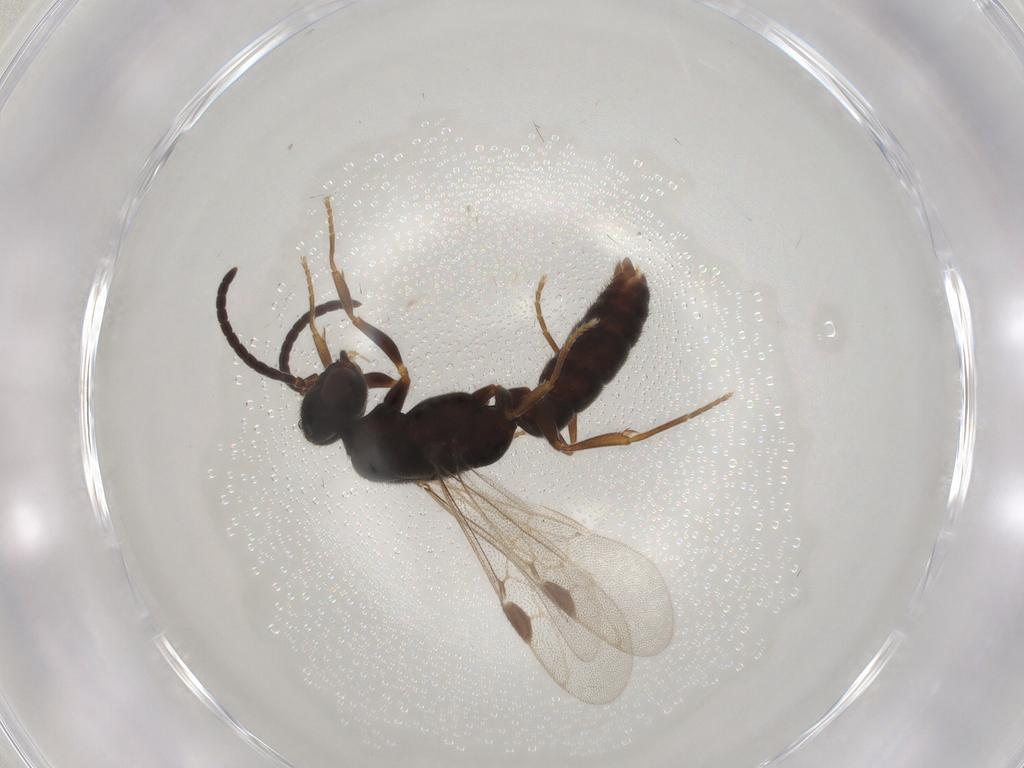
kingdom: Animalia
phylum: Arthropoda
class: Insecta
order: Hymenoptera
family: Formicidae
